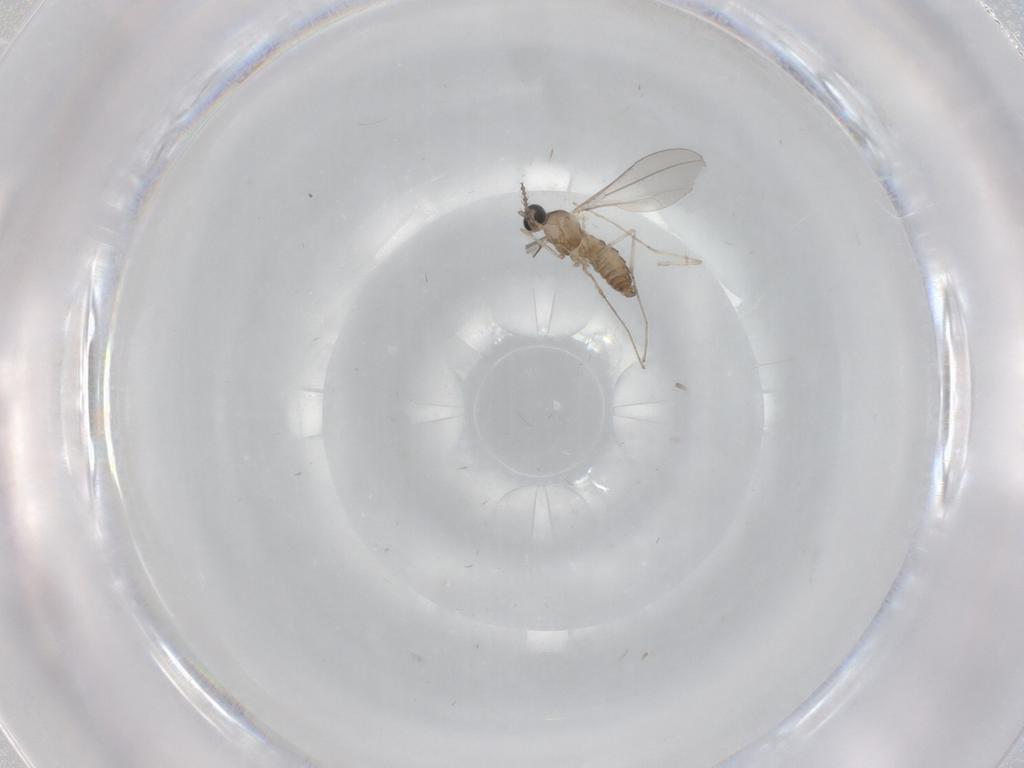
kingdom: Animalia
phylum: Arthropoda
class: Insecta
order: Diptera
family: Cecidomyiidae
